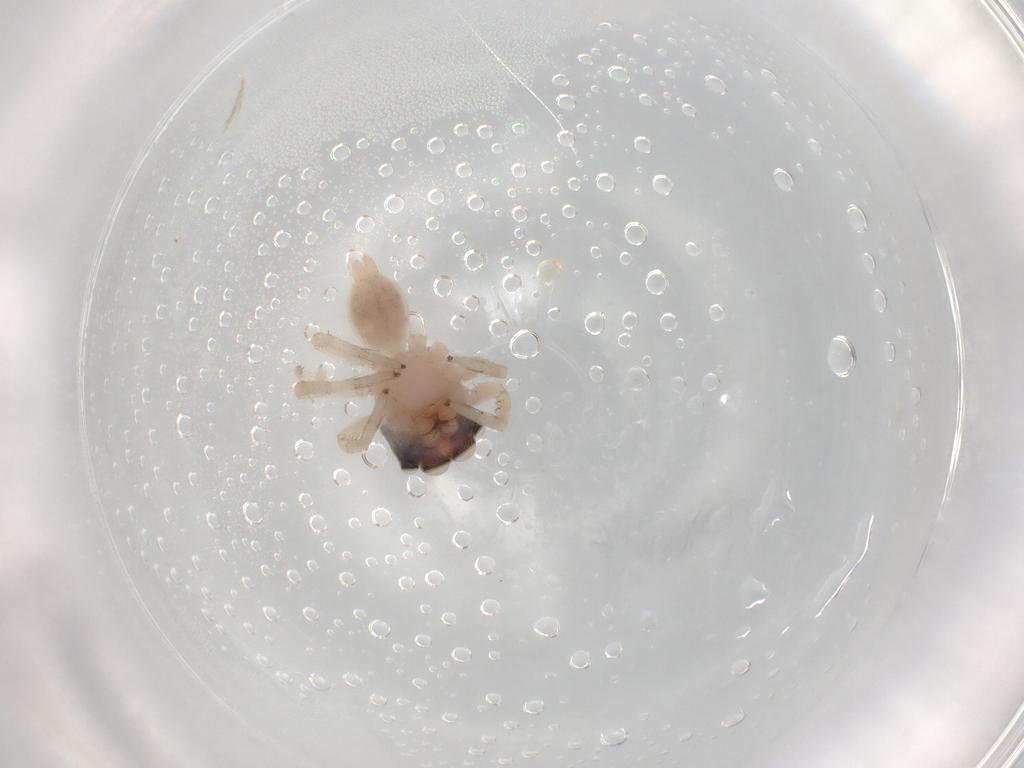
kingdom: Animalia
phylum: Arthropoda
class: Arachnida
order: Araneae
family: Salticidae
